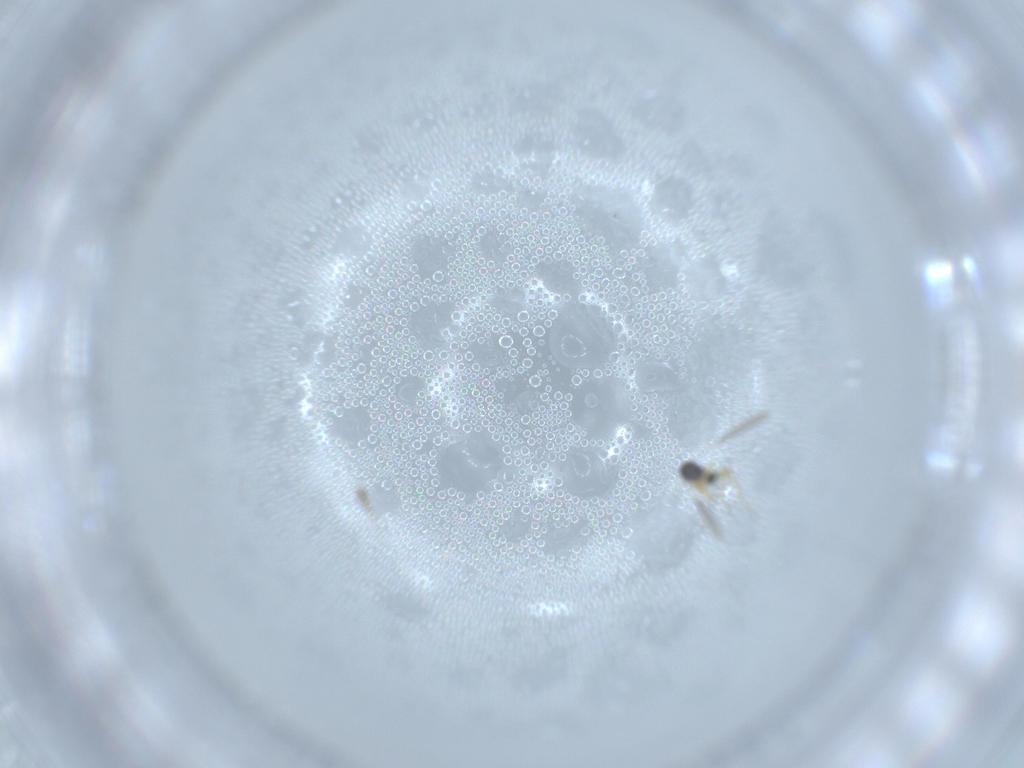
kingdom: Animalia
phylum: Arthropoda
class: Insecta
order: Hymenoptera
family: Mymaridae
